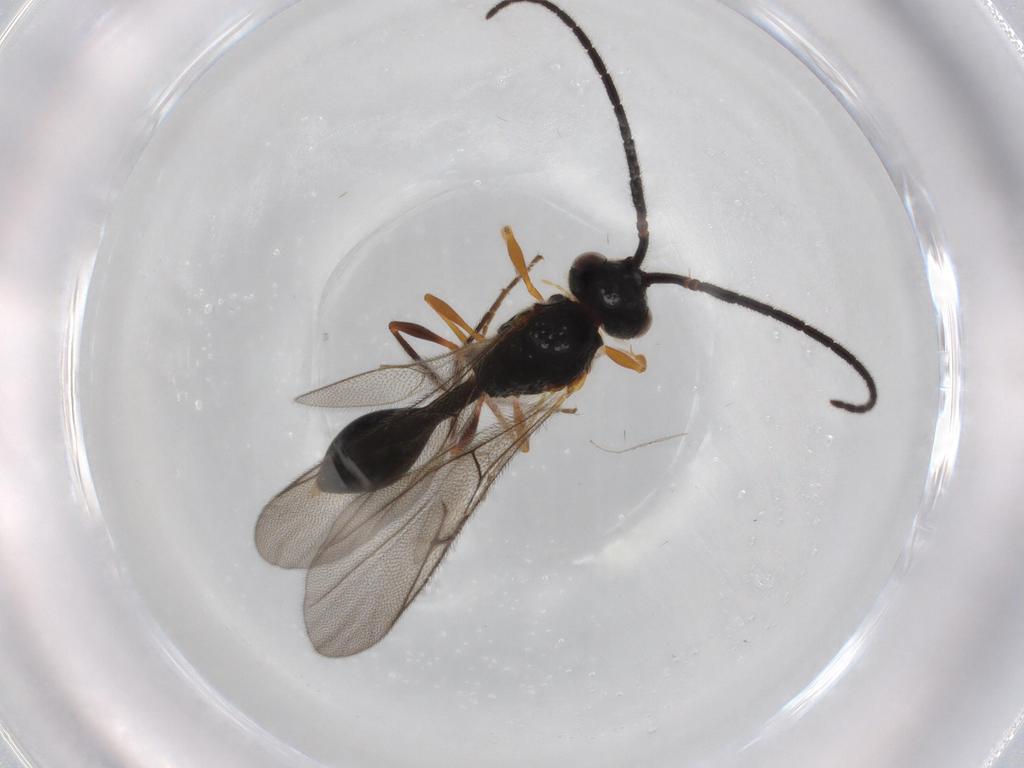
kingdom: Animalia
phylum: Arthropoda
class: Insecta
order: Hymenoptera
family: Diapriidae
